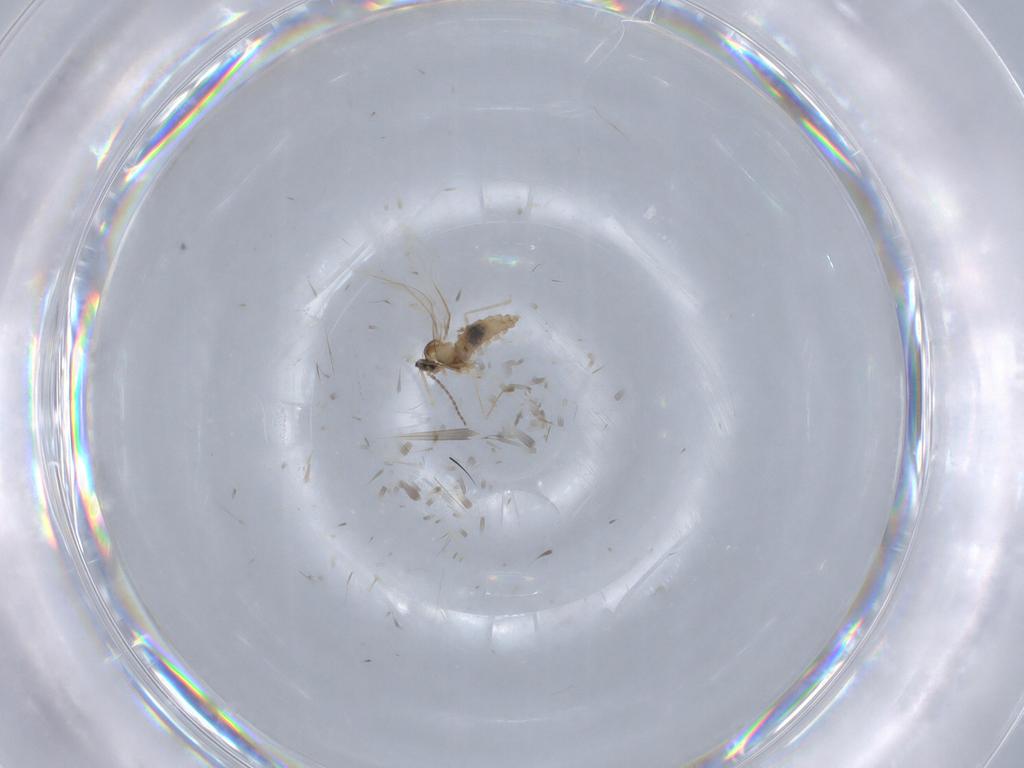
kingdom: Animalia
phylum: Arthropoda
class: Insecta
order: Diptera
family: Cecidomyiidae
